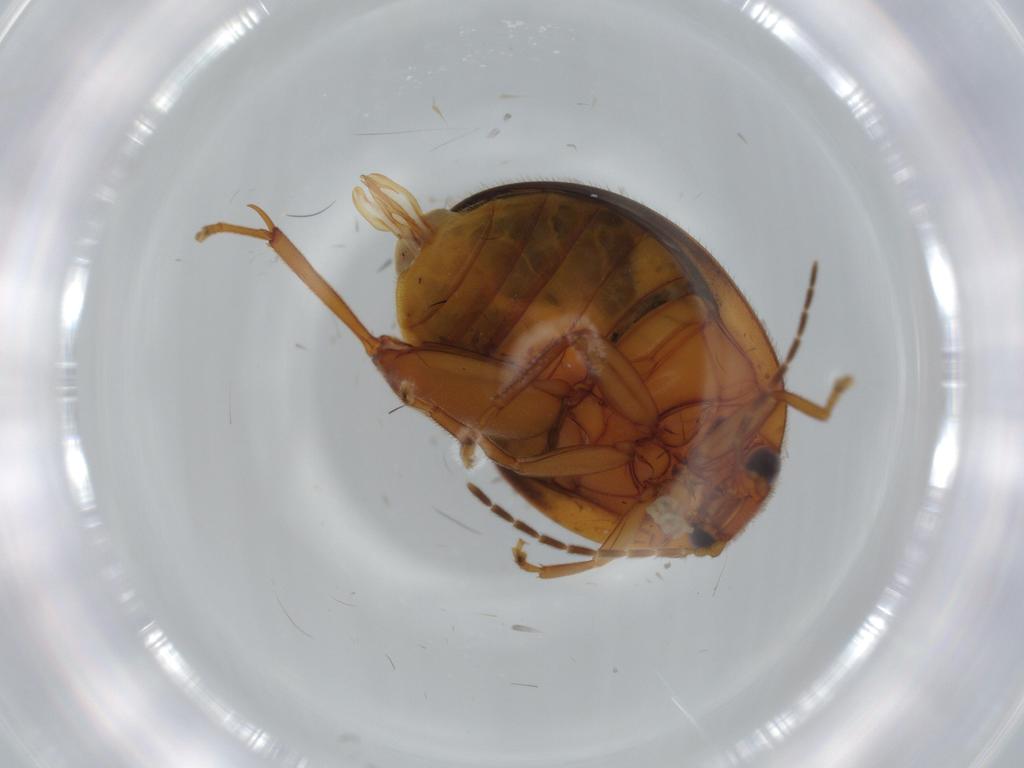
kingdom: Animalia
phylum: Arthropoda
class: Insecta
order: Coleoptera
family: Coccinellidae
